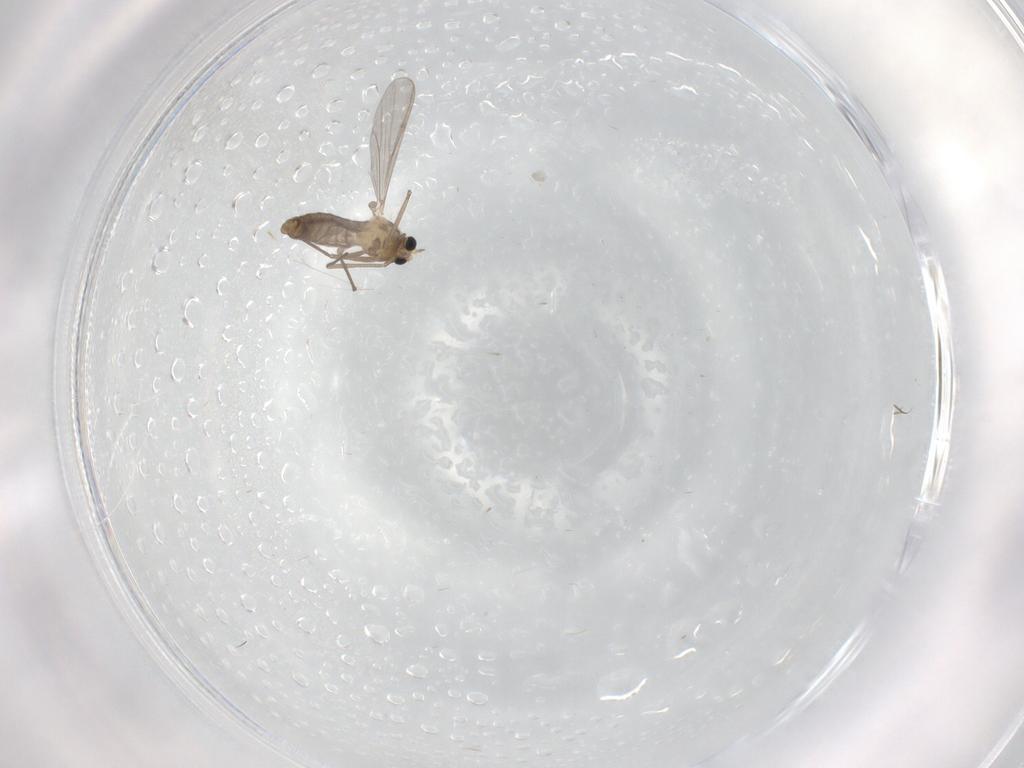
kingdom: Animalia
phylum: Arthropoda
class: Insecta
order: Diptera
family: Chironomidae
